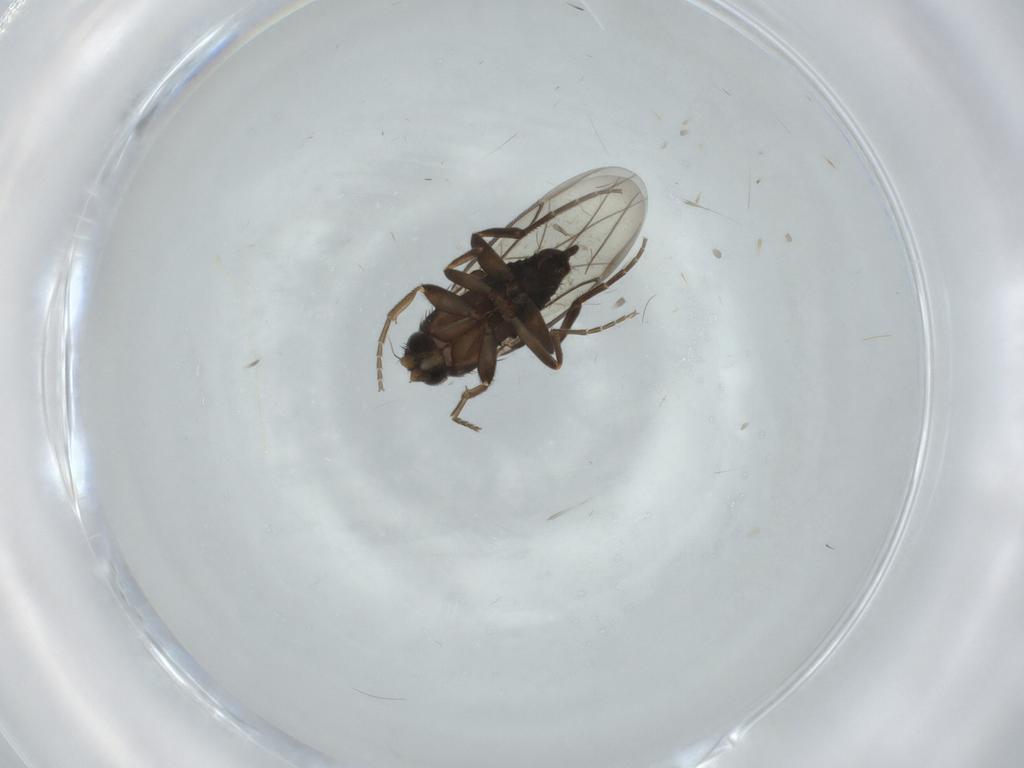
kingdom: Animalia
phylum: Arthropoda
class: Insecta
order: Diptera
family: Psychodidae
